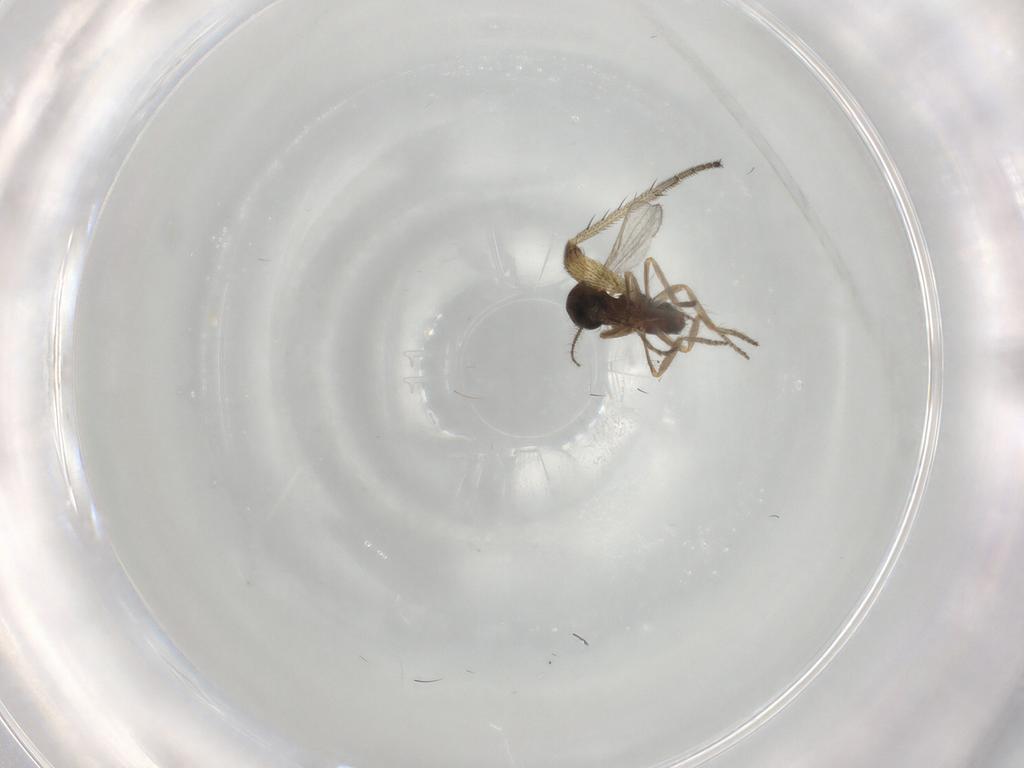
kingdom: Animalia
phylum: Arthropoda
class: Insecta
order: Diptera
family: Ceratopogonidae
